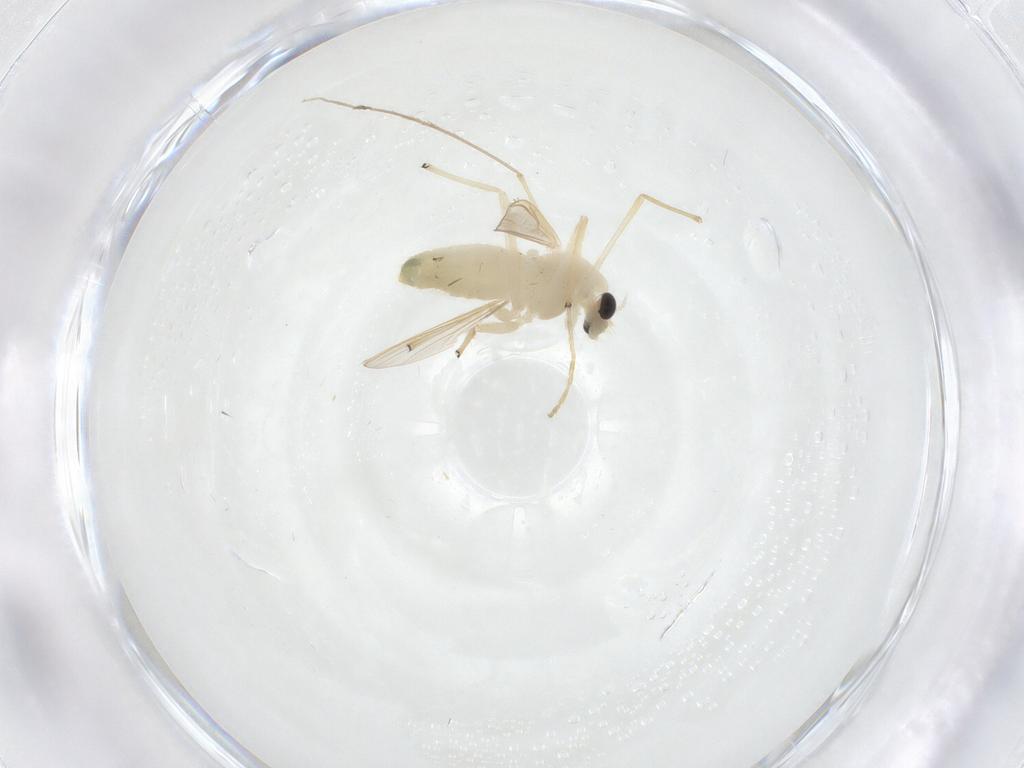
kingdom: Animalia
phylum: Arthropoda
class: Insecta
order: Diptera
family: Chironomidae
